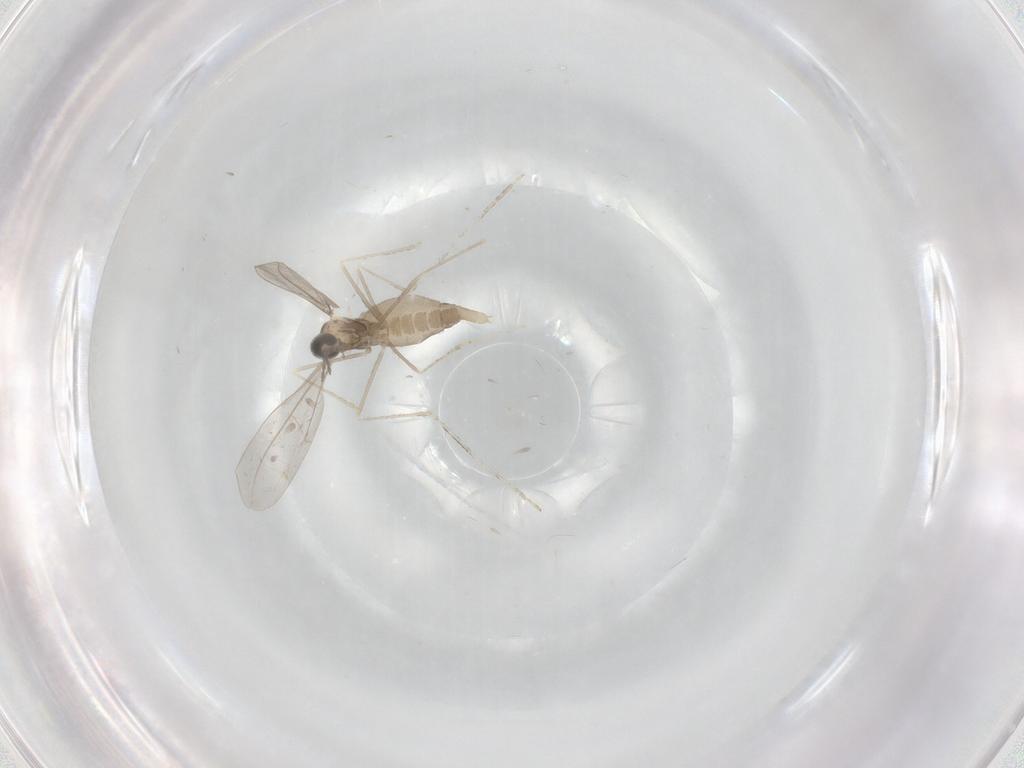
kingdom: Animalia
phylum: Arthropoda
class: Insecta
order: Diptera
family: Cecidomyiidae
